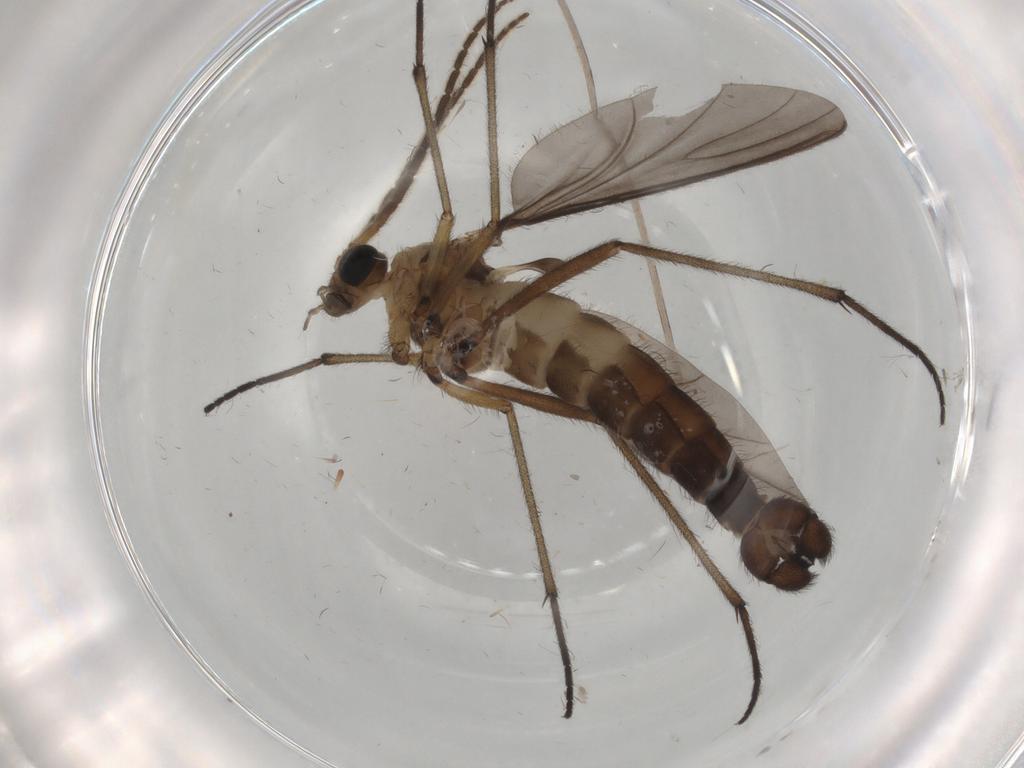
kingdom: Animalia
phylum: Arthropoda
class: Insecta
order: Diptera
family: Sciaridae
